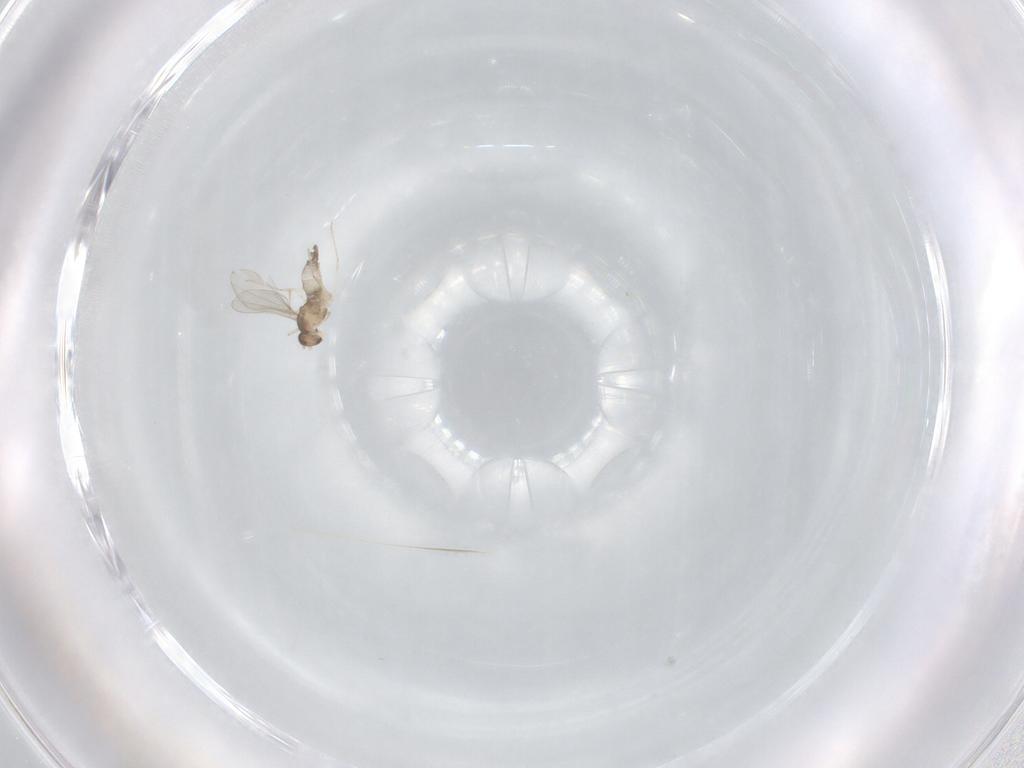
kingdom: Animalia
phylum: Arthropoda
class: Insecta
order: Diptera
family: Cecidomyiidae
